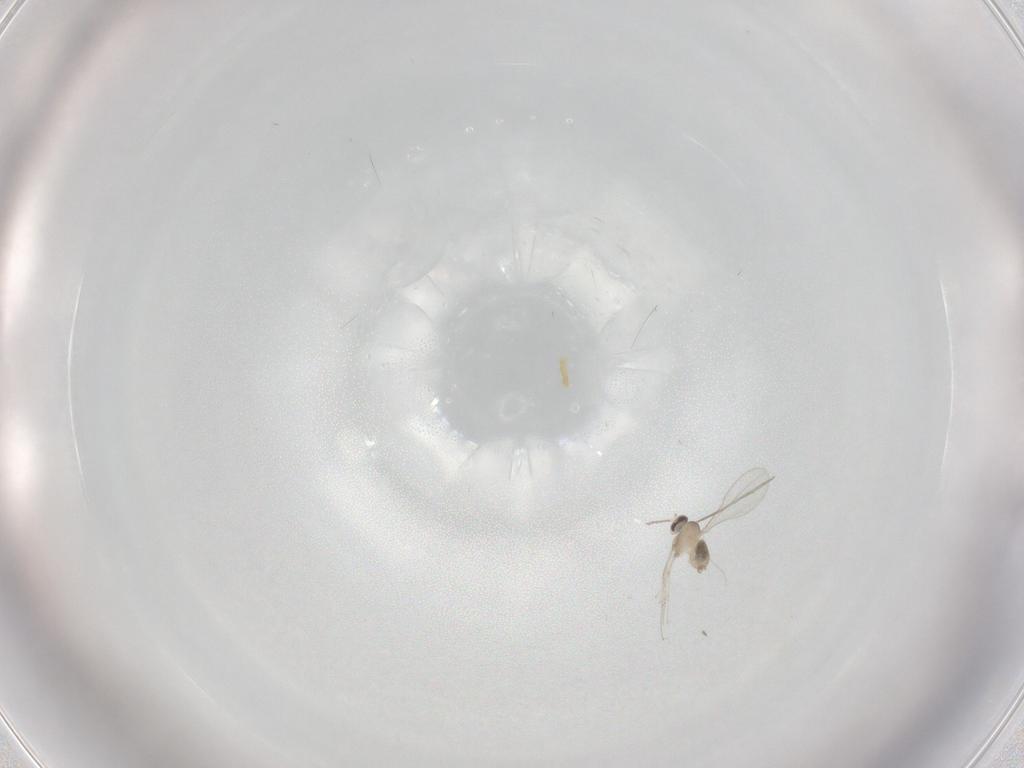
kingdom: Animalia
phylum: Arthropoda
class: Insecta
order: Diptera
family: Cecidomyiidae
